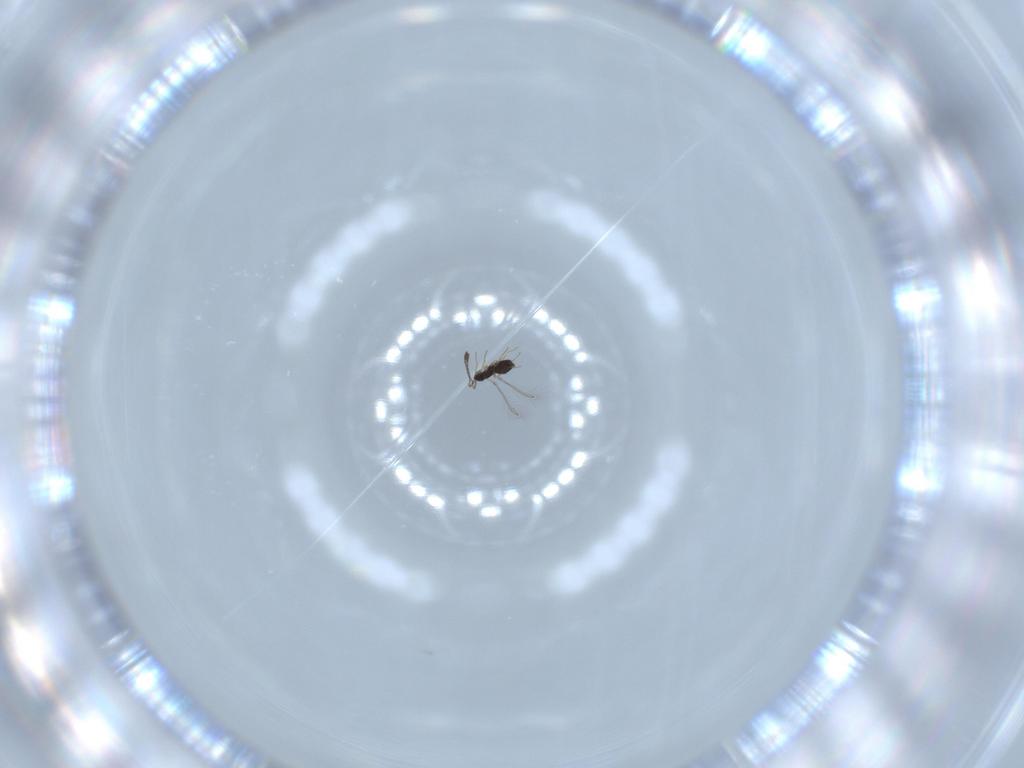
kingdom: Animalia
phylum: Arthropoda
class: Insecta
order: Hymenoptera
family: Mymaridae
